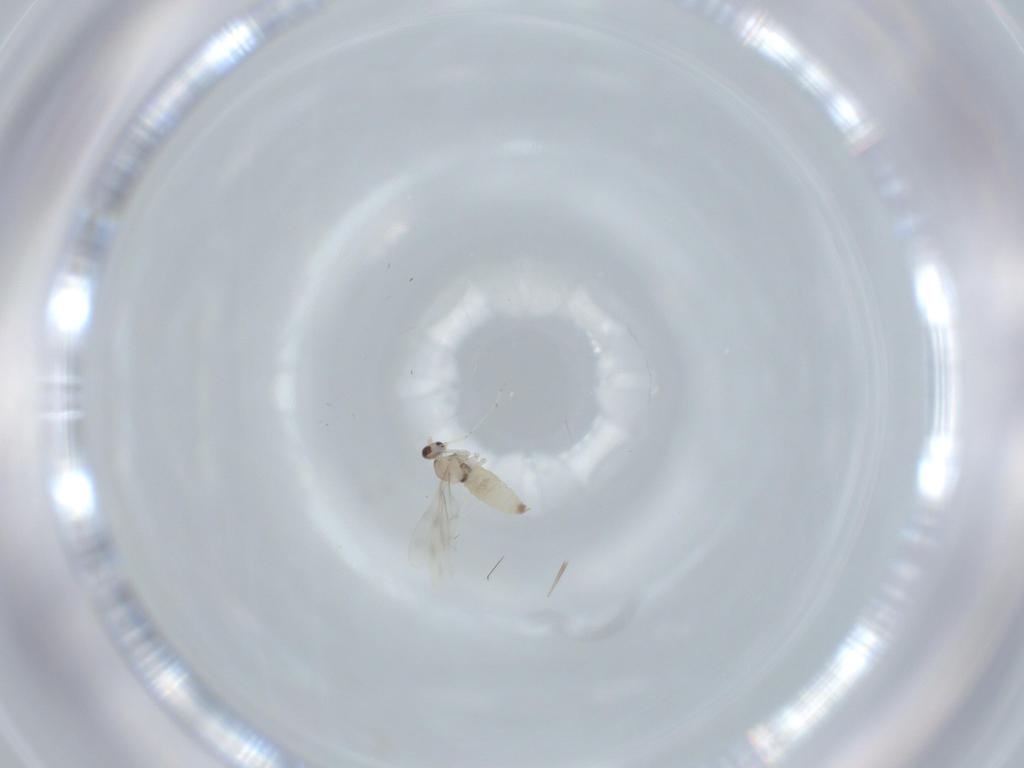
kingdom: Animalia
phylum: Arthropoda
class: Insecta
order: Diptera
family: Cecidomyiidae
